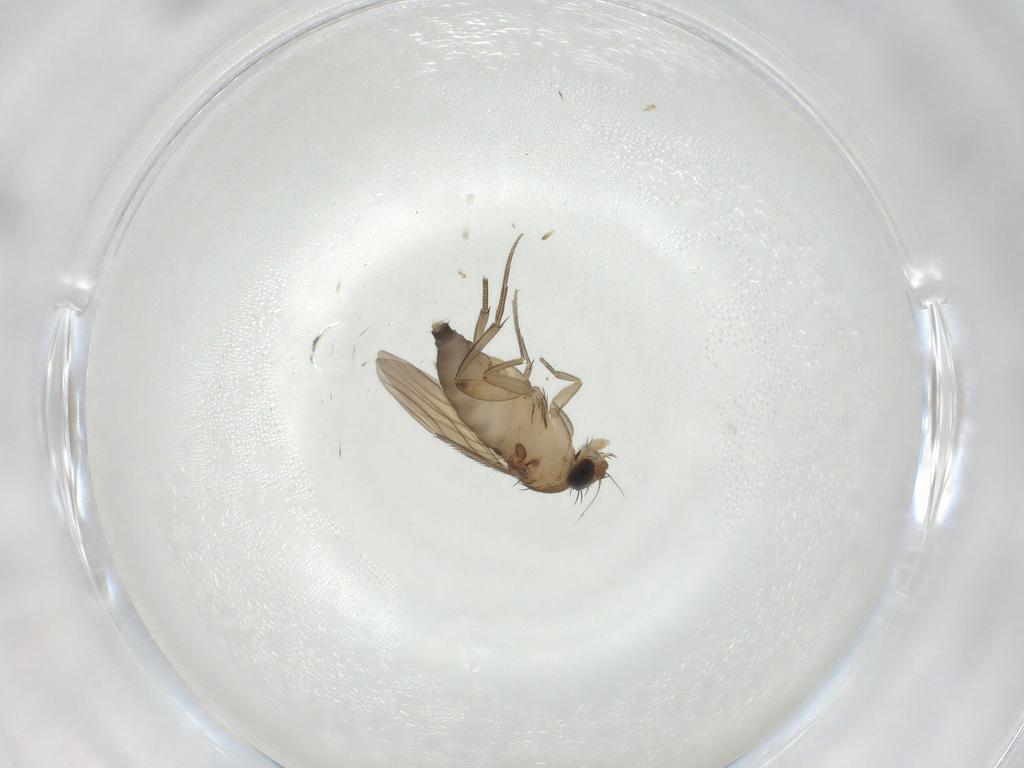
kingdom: Animalia
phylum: Arthropoda
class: Insecta
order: Diptera
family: Phoridae
